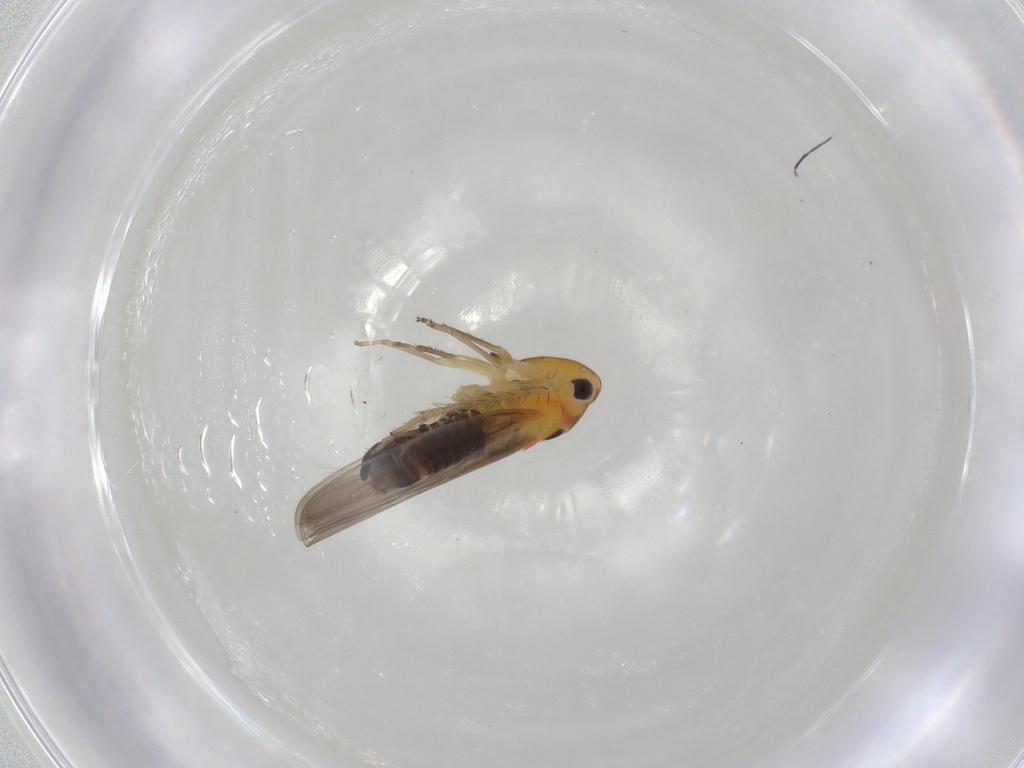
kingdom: Animalia
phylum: Arthropoda
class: Insecta
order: Hemiptera
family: Cicadellidae
